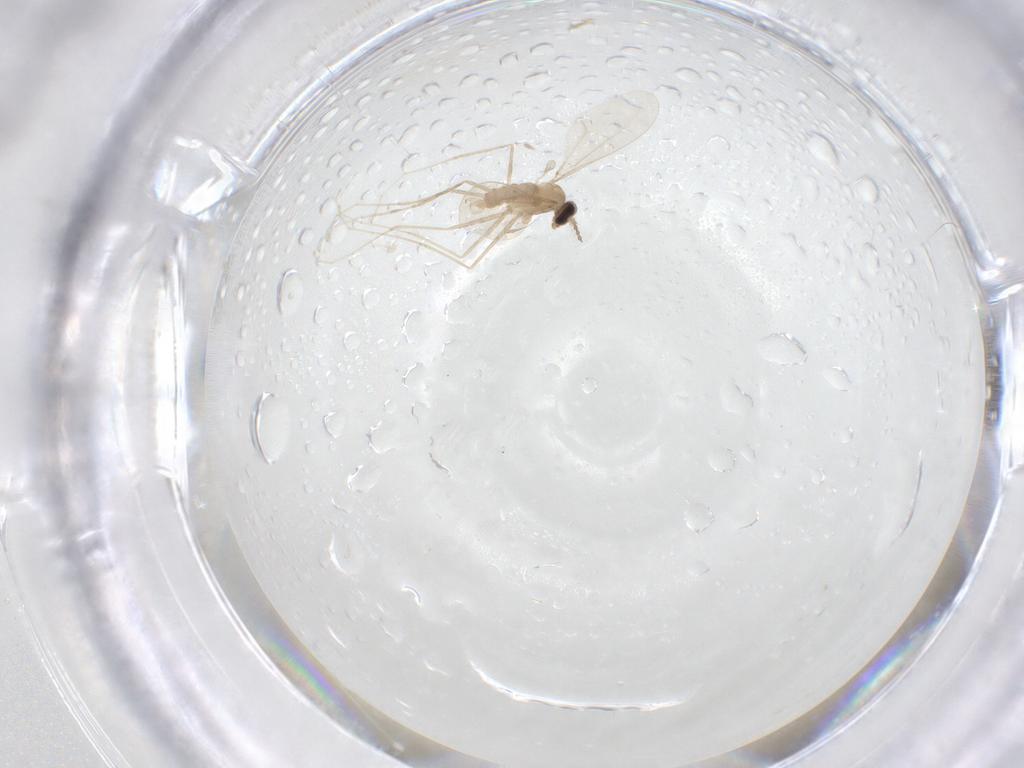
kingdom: Animalia
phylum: Arthropoda
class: Insecta
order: Diptera
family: Cecidomyiidae
